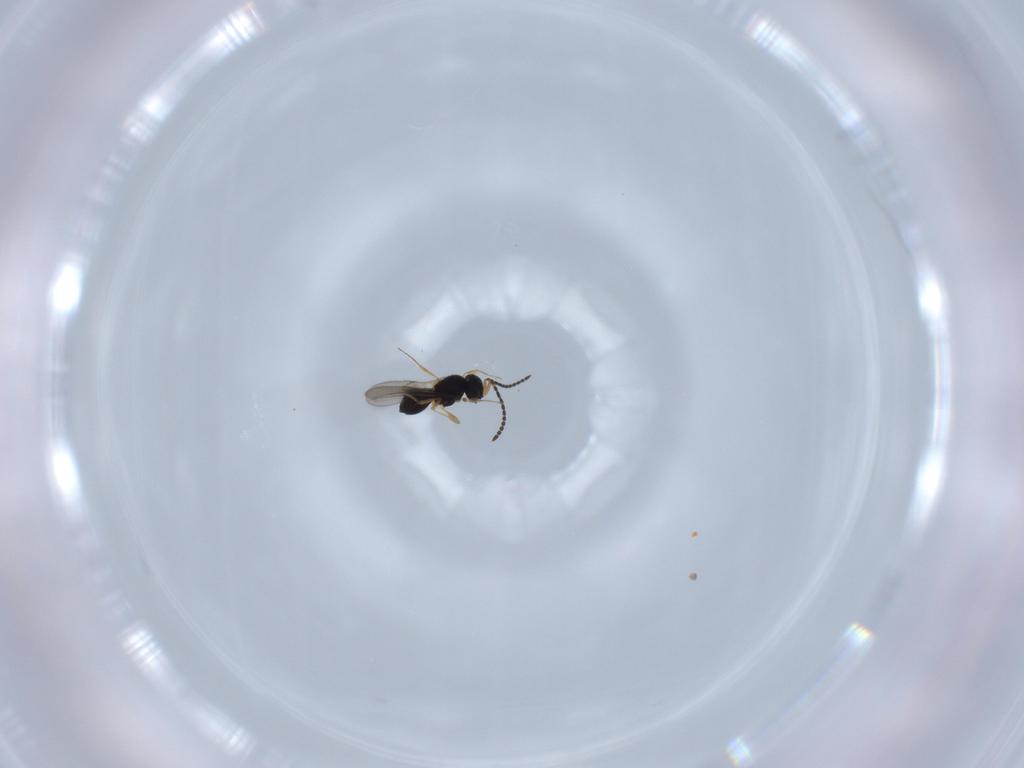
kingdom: Animalia
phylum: Arthropoda
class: Insecta
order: Hymenoptera
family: Scelionidae
